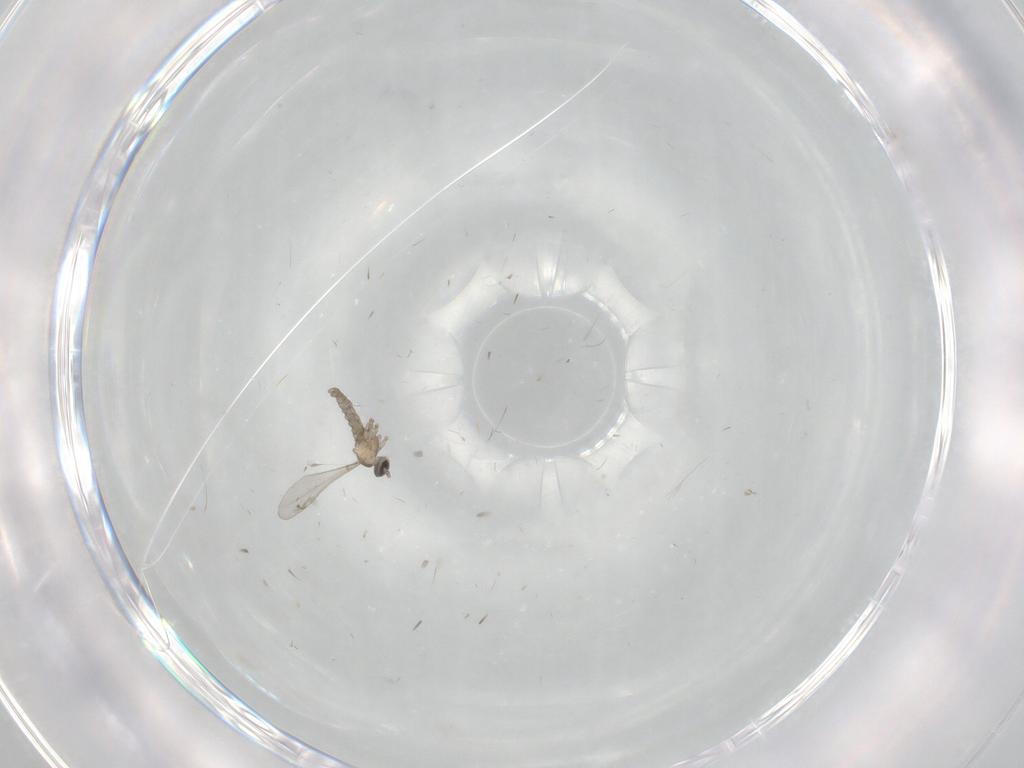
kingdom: Animalia
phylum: Arthropoda
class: Insecta
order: Diptera
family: Cecidomyiidae
